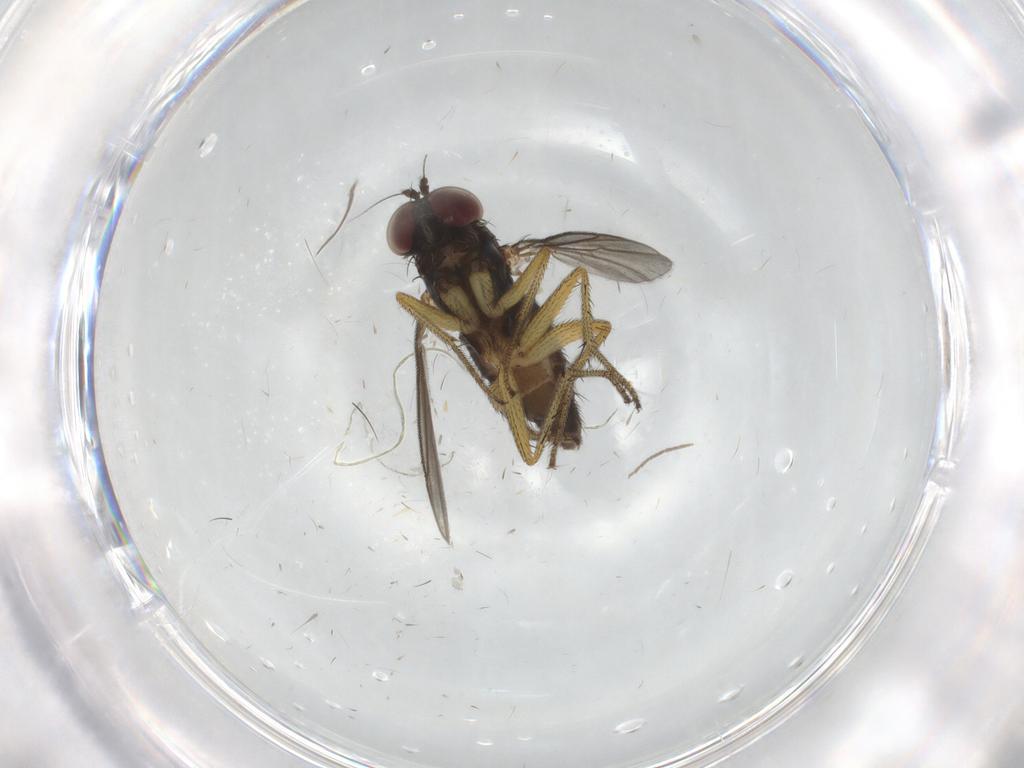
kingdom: Animalia
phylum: Arthropoda
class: Insecta
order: Diptera
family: Dolichopodidae
